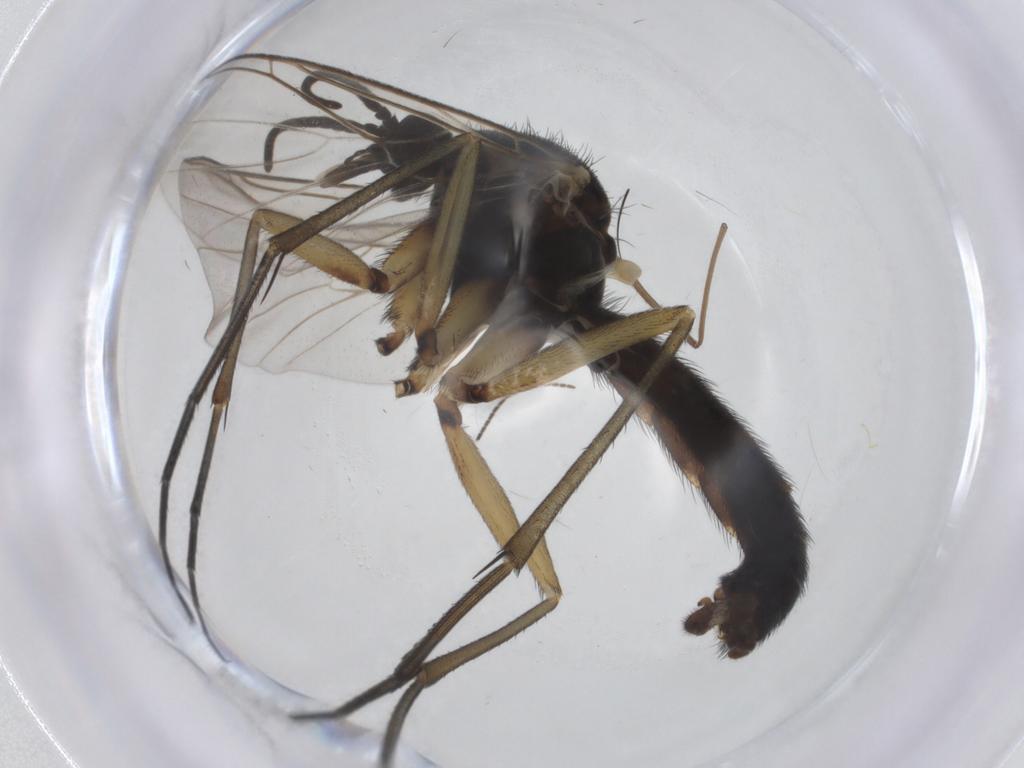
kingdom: Animalia
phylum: Arthropoda
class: Insecta
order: Diptera
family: Keroplatidae
